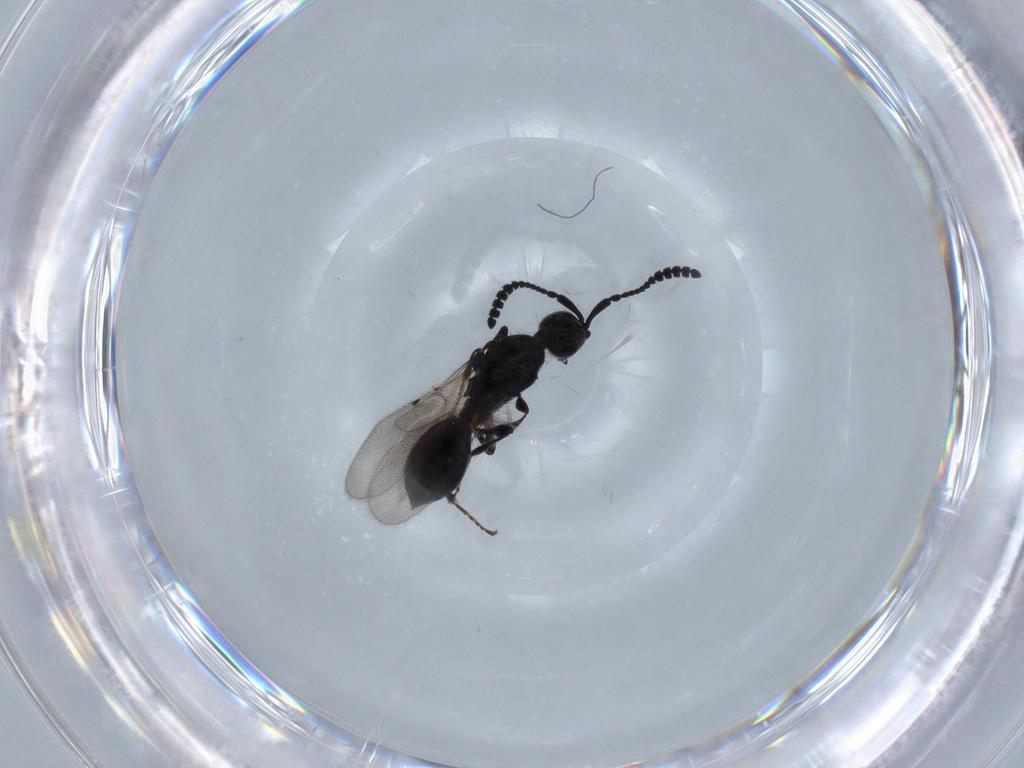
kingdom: Animalia
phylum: Arthropoda
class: Insecta
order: Hymenoptera
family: Diapriidae
